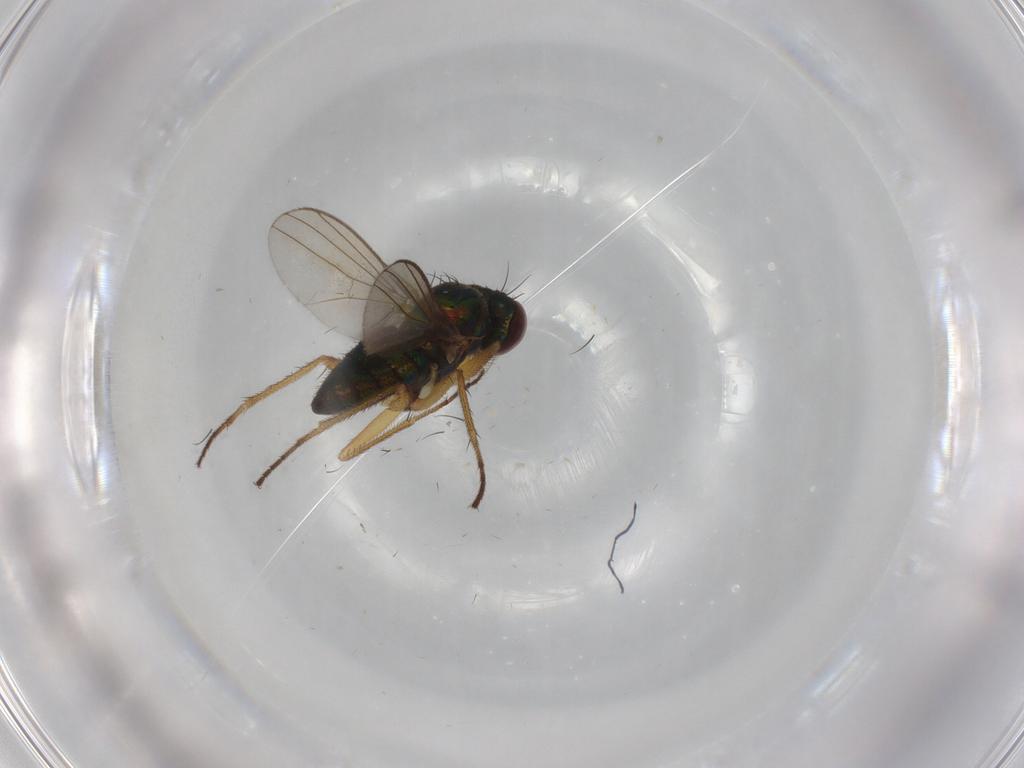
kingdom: Animalia
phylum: Arthropoda
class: Insecta
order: Diptera
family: Dolichopodidae
